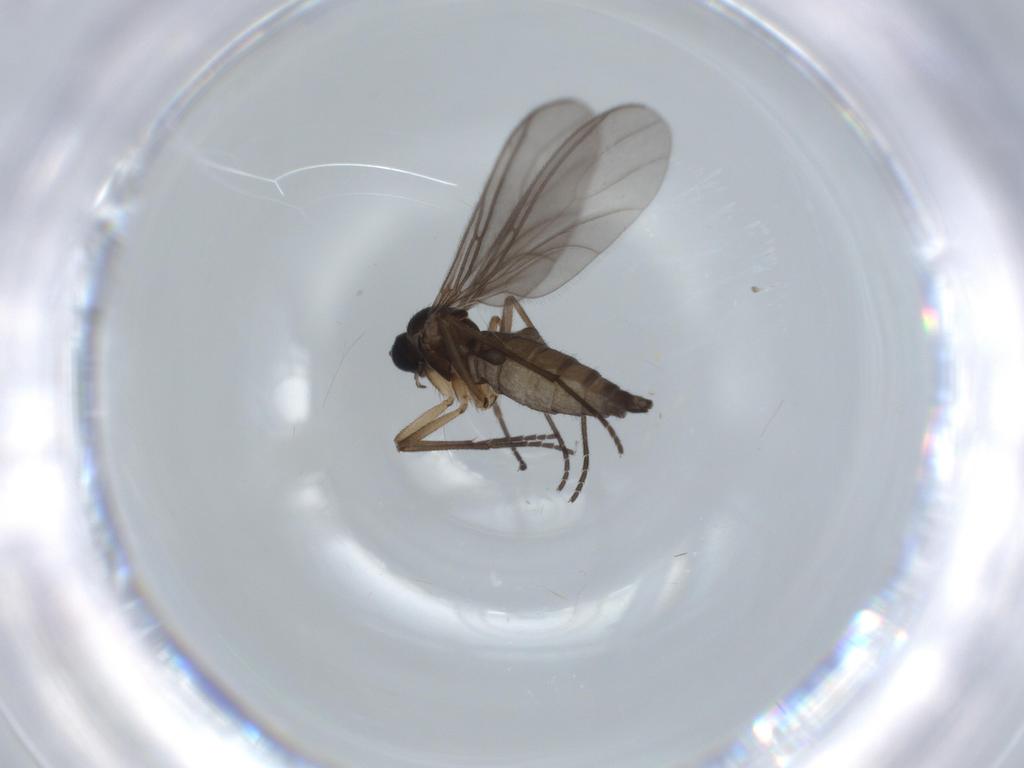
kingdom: Animalia
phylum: Arthropoda
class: Insecta
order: Diptera
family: Sciaridae
